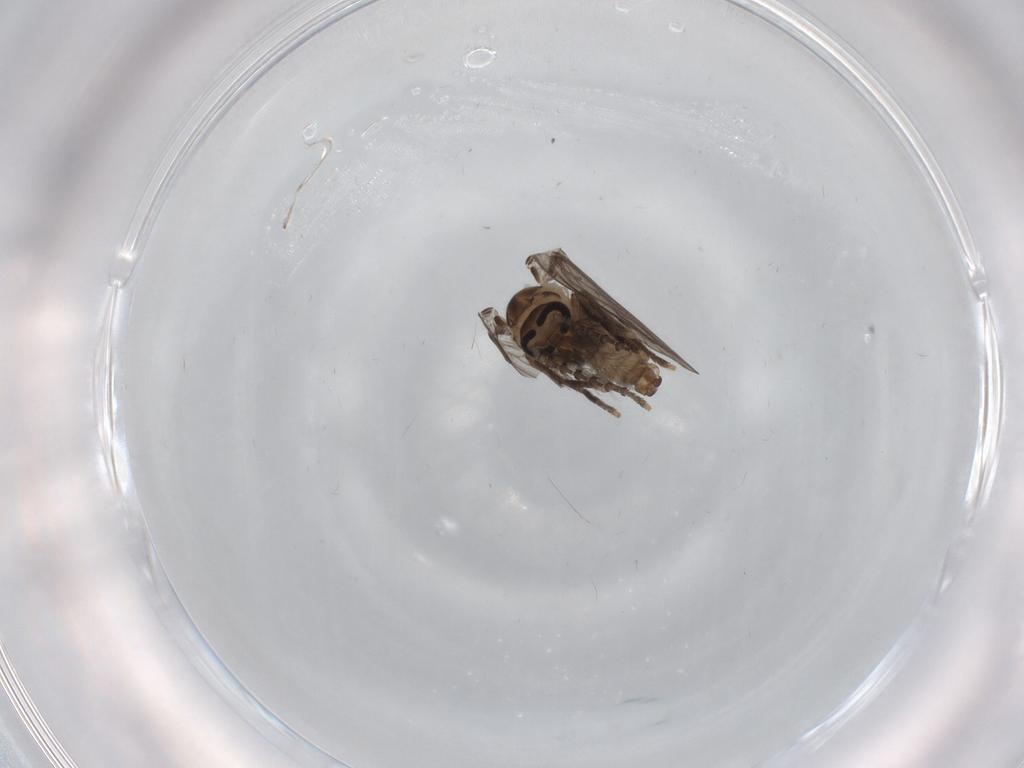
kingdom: Animalia
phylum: Arthropoda
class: Insecta
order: Diptera
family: Psychodidae
